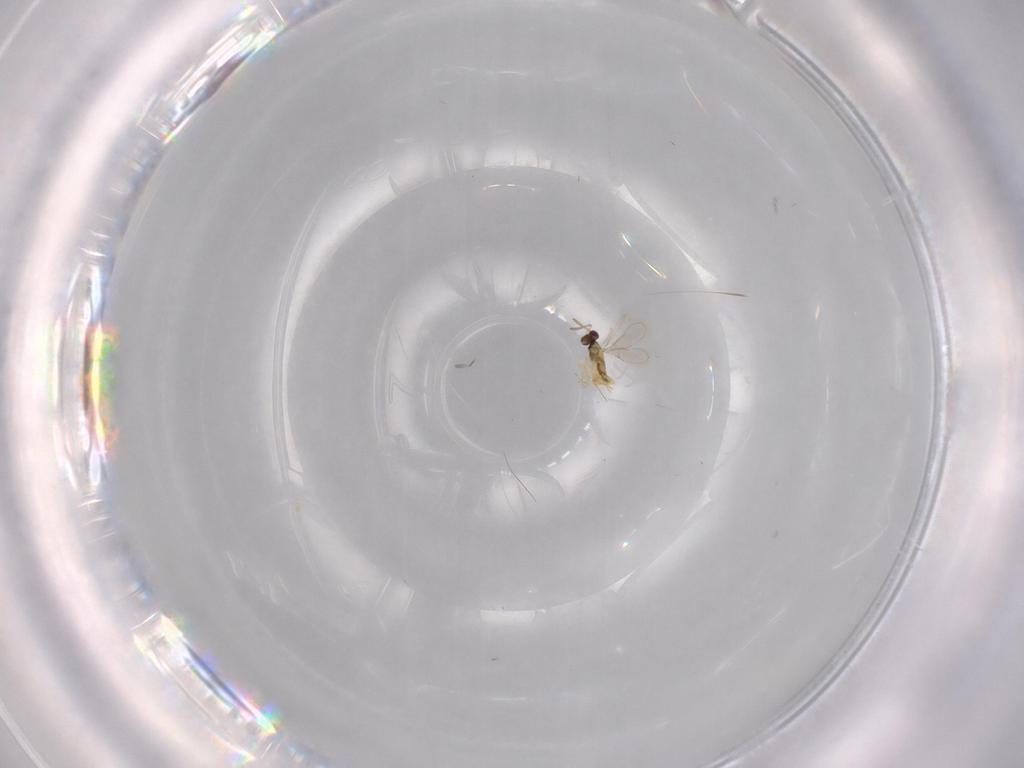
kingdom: Animalia
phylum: Arthropoda
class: Insecta
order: Hymenoptera
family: Aphelinidae
